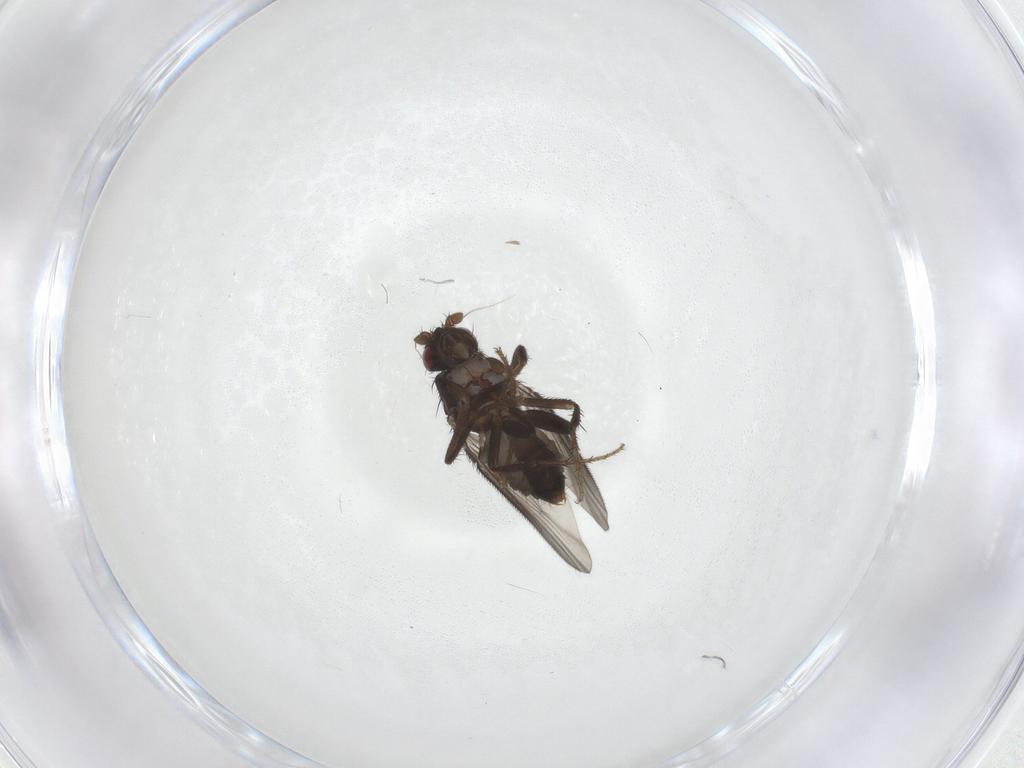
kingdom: Animalia
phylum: Arthropoda
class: Insecta
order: Diptera
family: Sphaeroceridae
